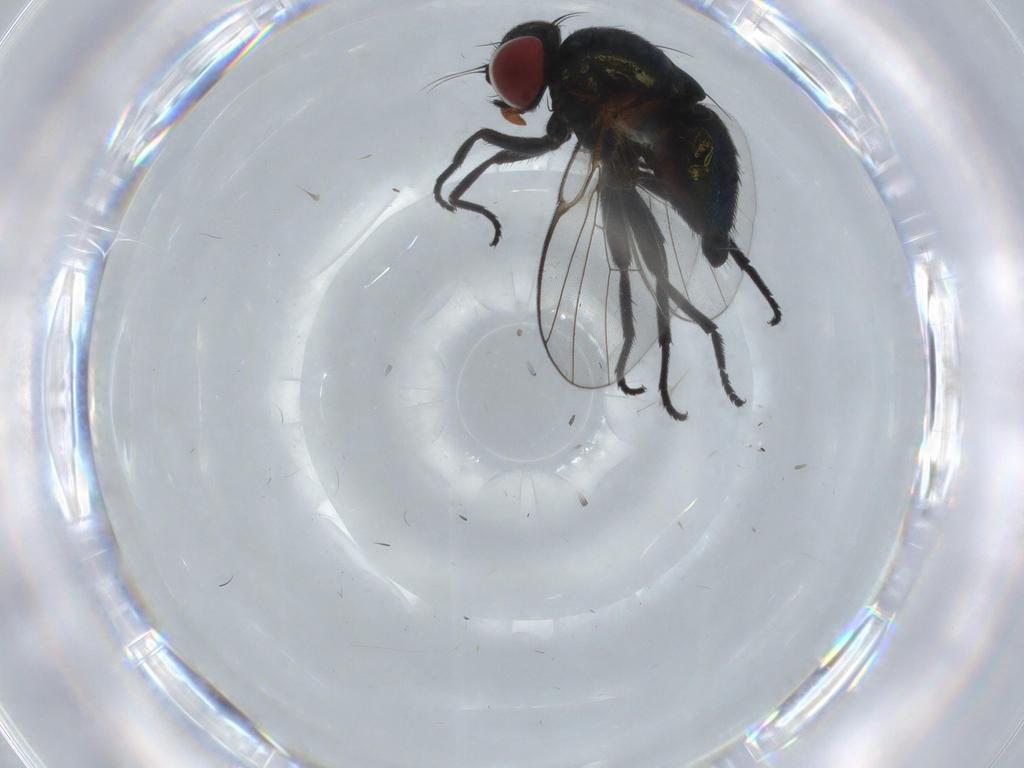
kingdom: Animalia
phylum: Arthropoda
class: Insecta
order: Diptera
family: Agromyzidae
